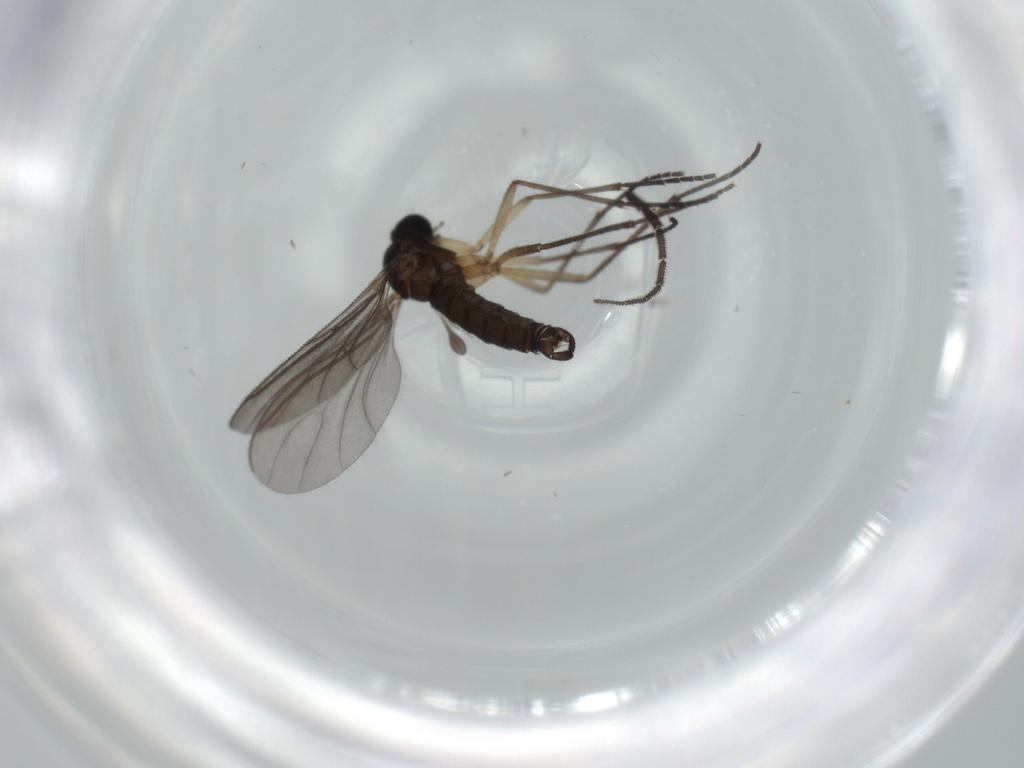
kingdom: Animalia
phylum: Arthropoda
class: Insecta
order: Diptera
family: Sciaridae
